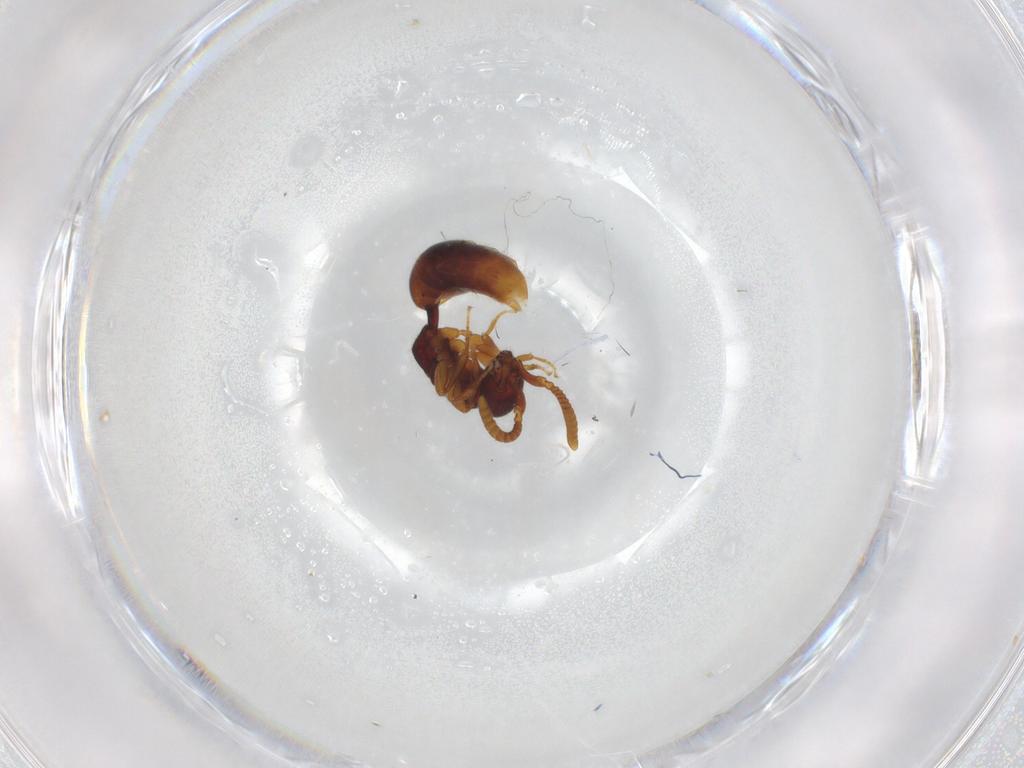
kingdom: Animalia
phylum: Arthropoda
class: Insecta
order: Hymenoptera
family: Bethylidae
